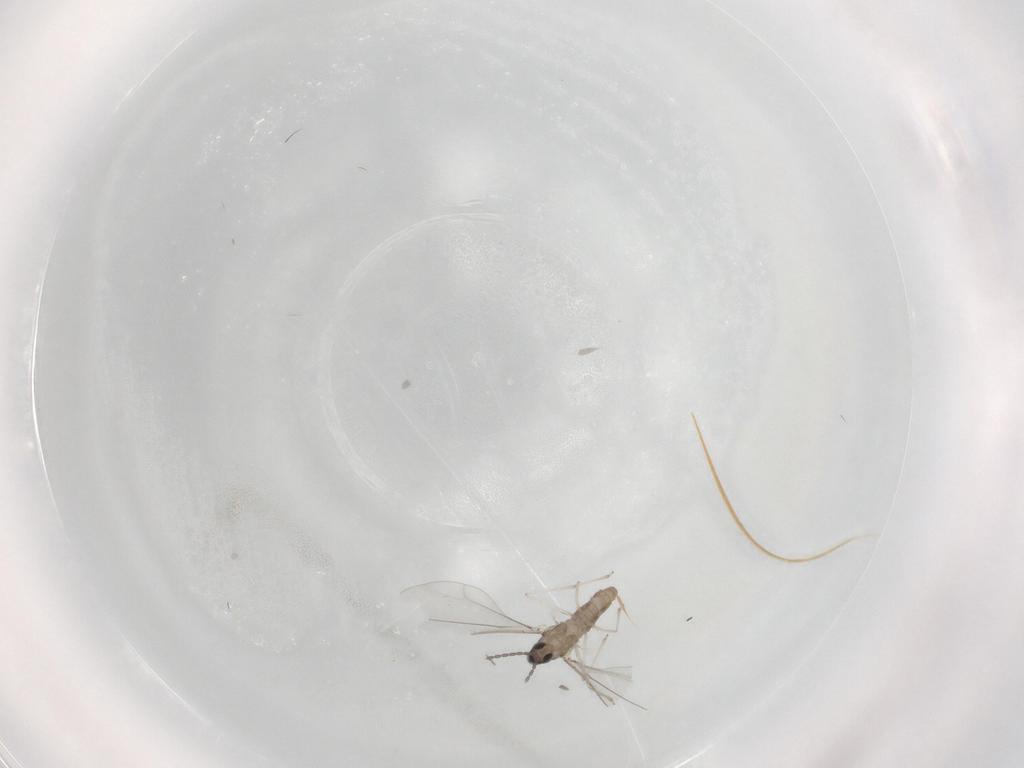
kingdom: Animalia
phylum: Arthropoda
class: Insecta
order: Diptera
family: Cecidomyiidae
